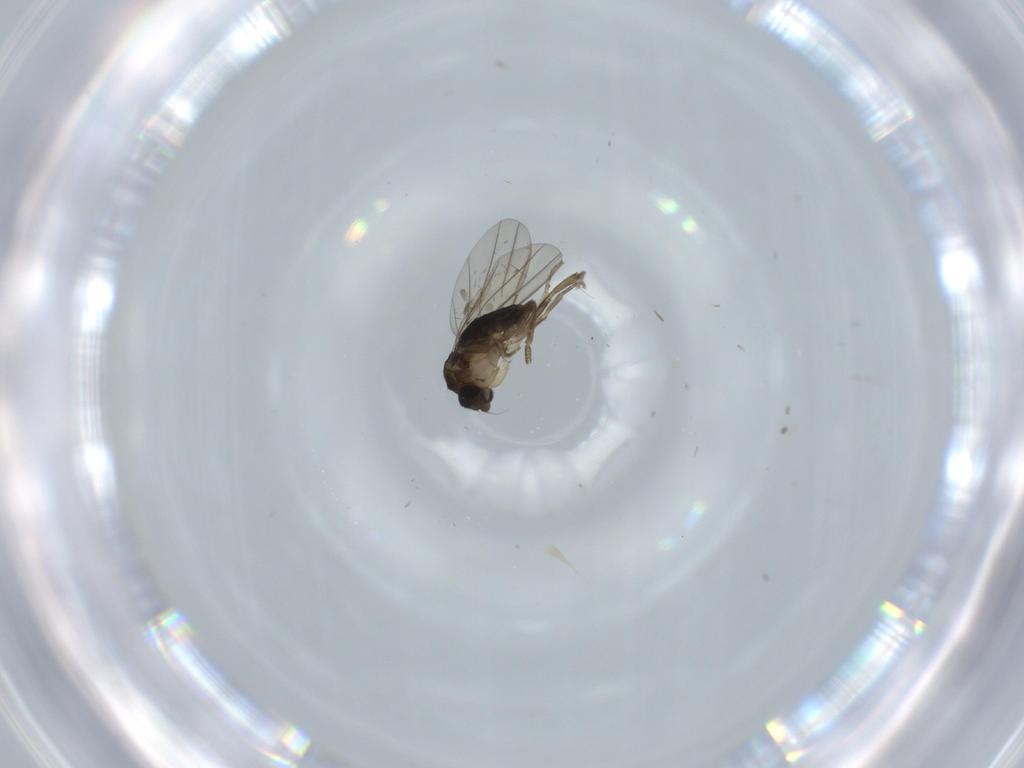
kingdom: Animalia
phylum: Arthropoda
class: Insecta
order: Diptera
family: Phoridae
